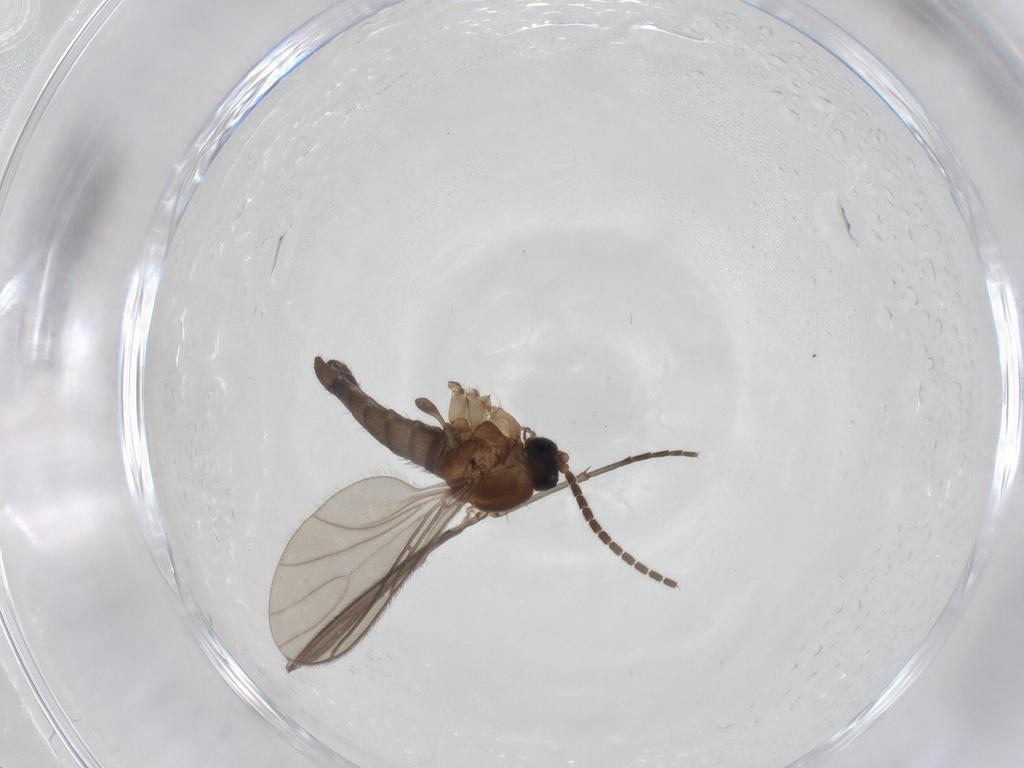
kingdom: Animalia
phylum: Arthropoda
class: Insecta
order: Diptera
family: Sciaridae
